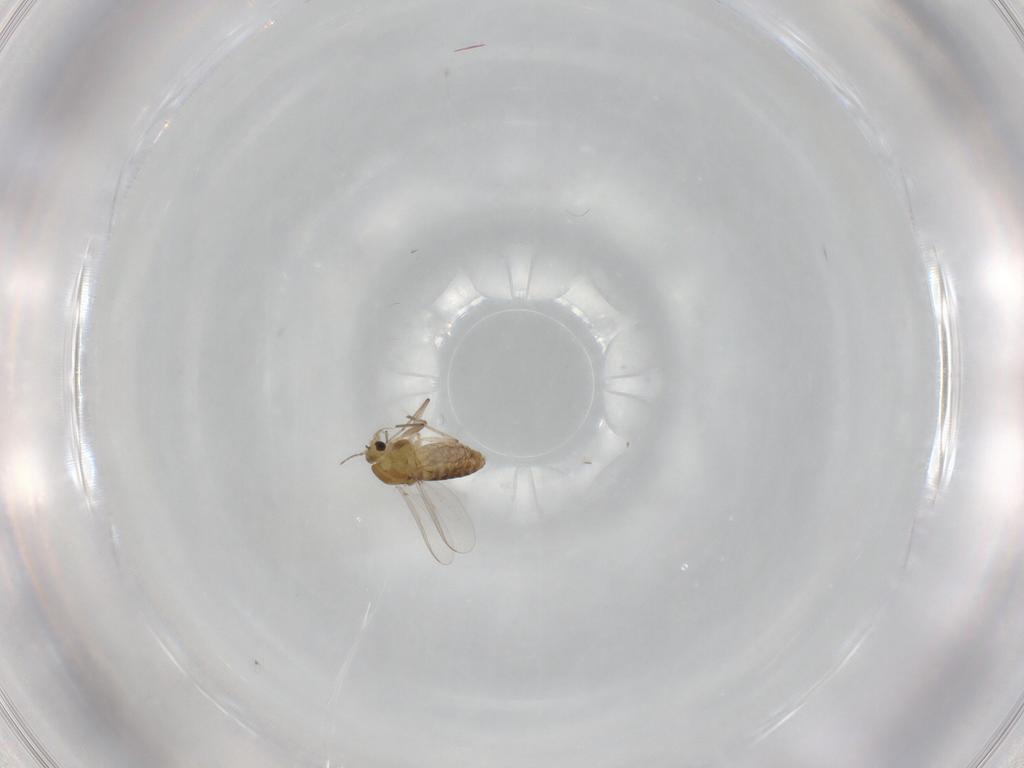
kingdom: Animalia
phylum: Arthropoda
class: Insecta
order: Diptera
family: Chironomidae
